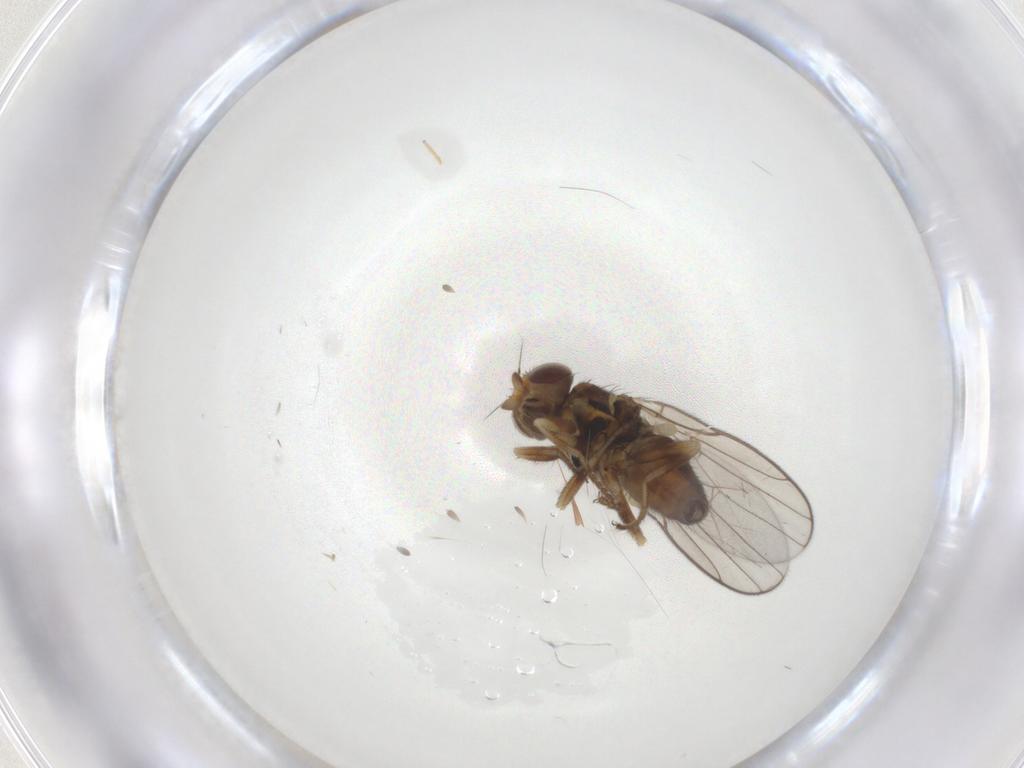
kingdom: Animalia
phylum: Arthropoda
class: Insecta
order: Diptera
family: Chloropidae
